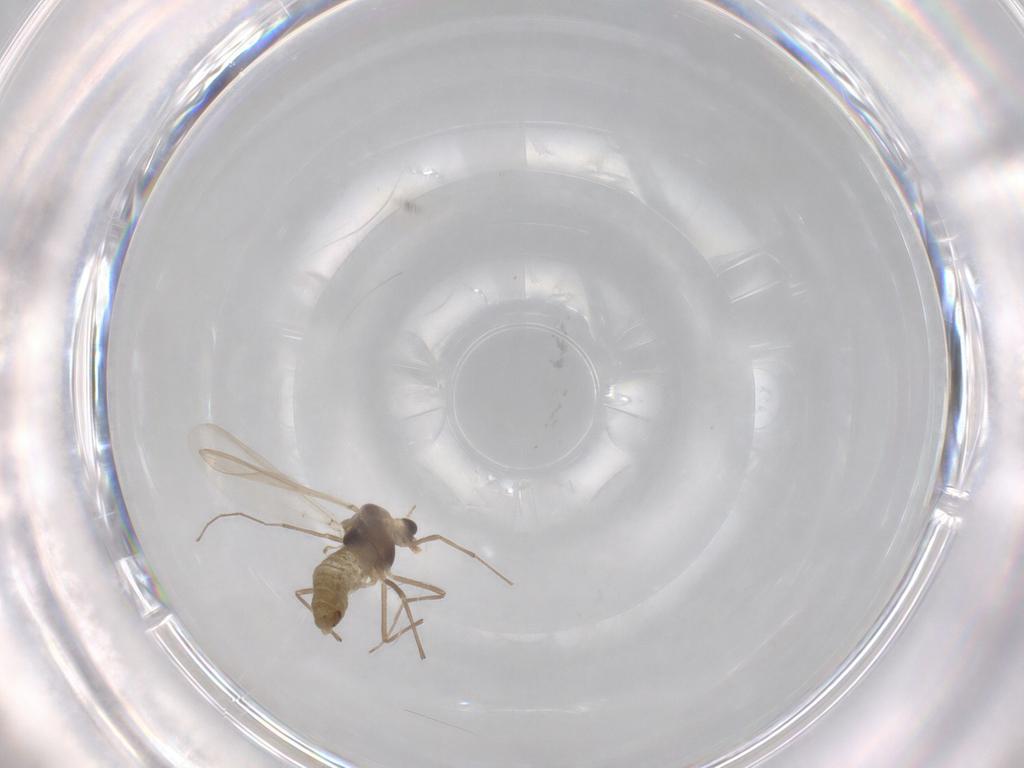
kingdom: Animalia
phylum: Arthropoda
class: Insecta
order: Diptera
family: Chironomidae
